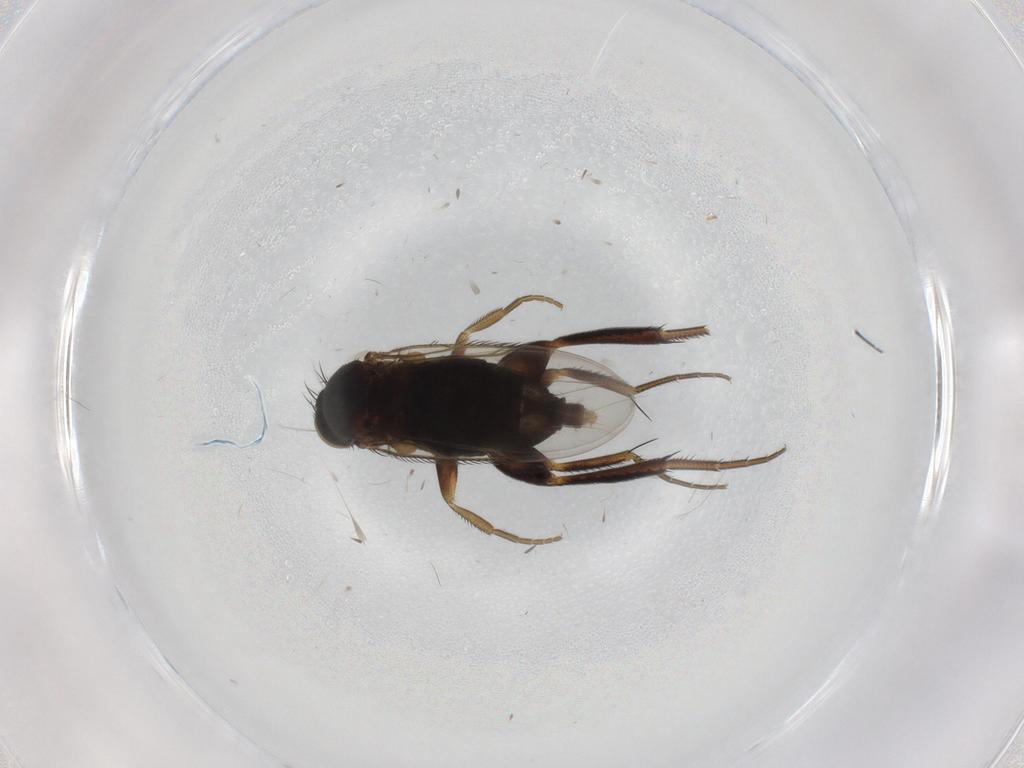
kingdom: Animalia
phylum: Arthropoda
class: Insecta
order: Diptera
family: Phoridae
